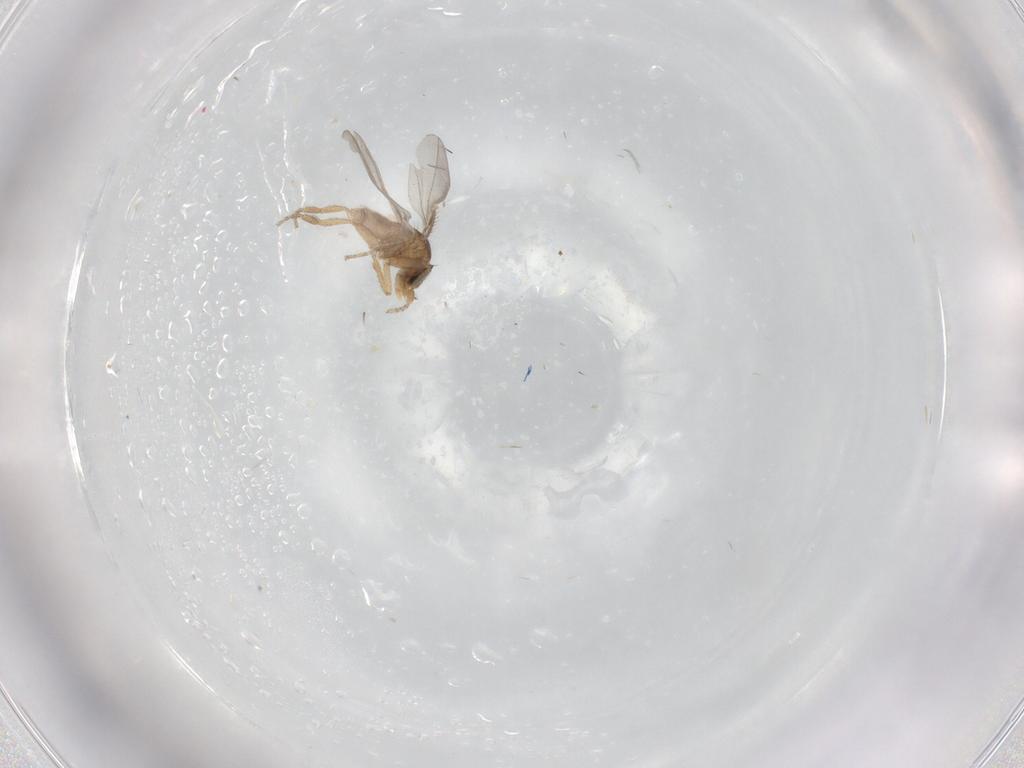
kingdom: Animalia
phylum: Arthropoda
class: Insecta
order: Diptera
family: Phoridae
